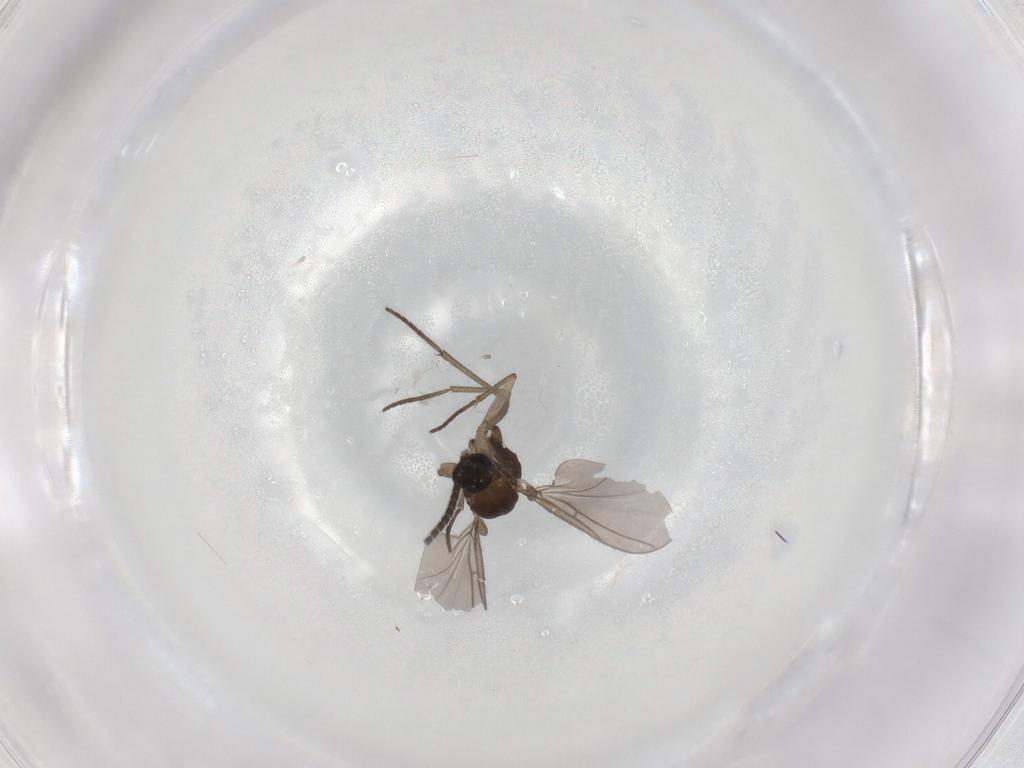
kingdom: Animalia
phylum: Arthropoda
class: Insecta
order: Diptera
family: Sciaridae
